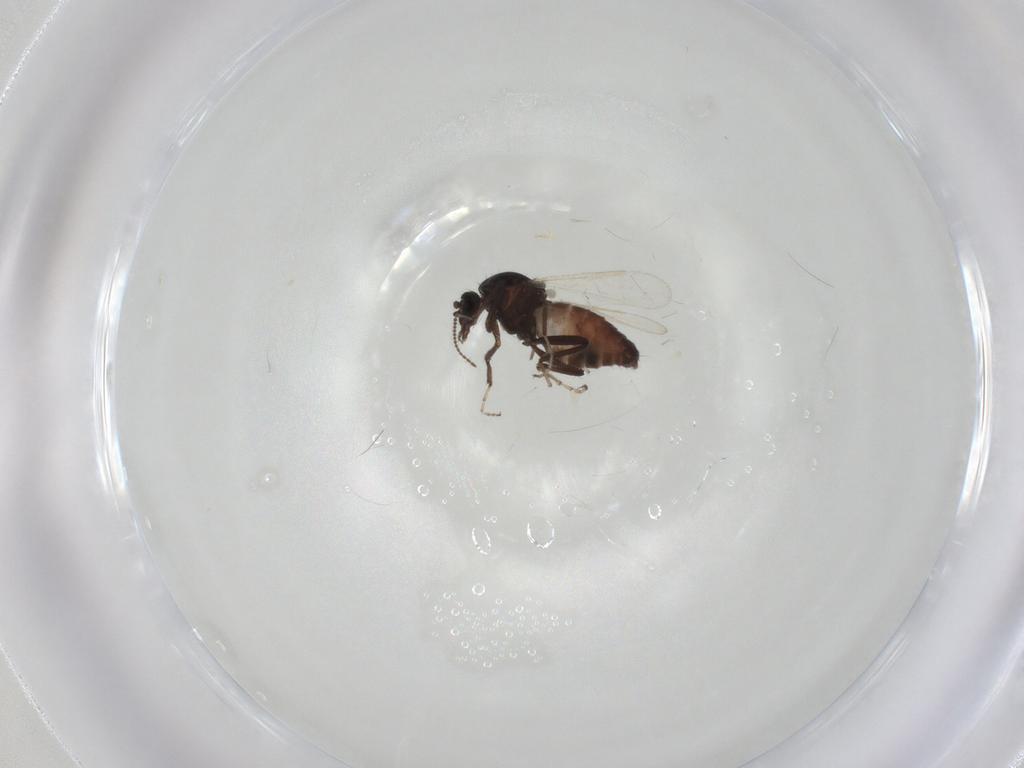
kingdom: Animalia
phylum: Arthropoda
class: Insecta
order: Diptera
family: Ceratopogonidae
